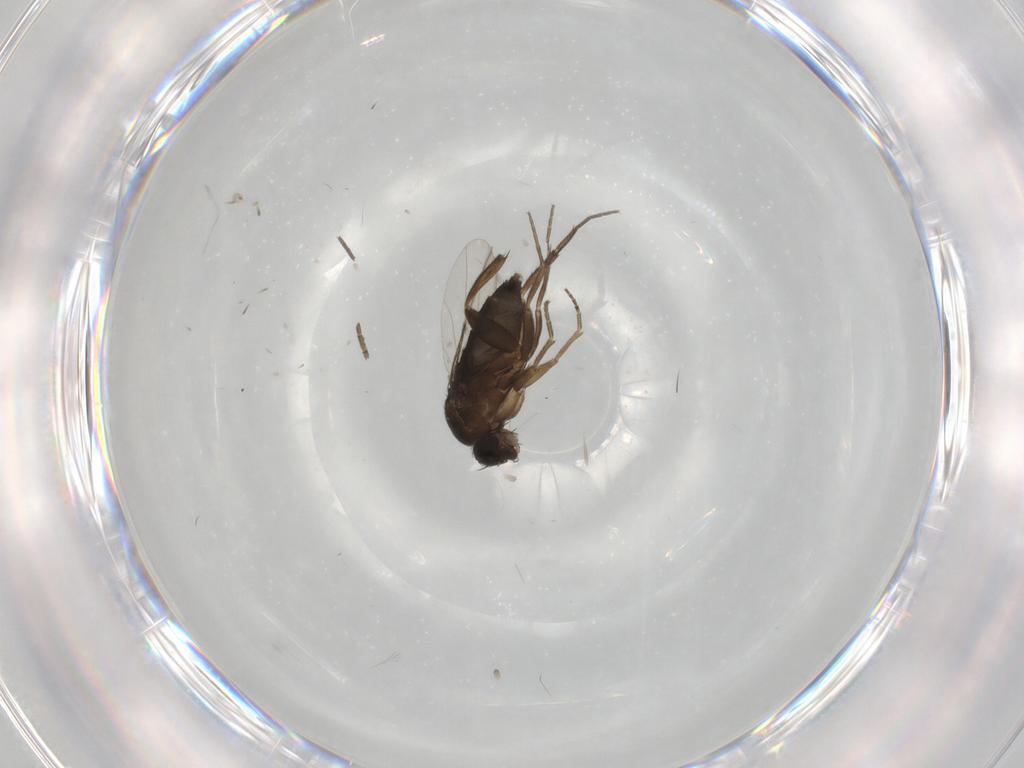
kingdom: Animalia
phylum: Arthropoda
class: Insecta
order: Diptera
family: Phoridae
